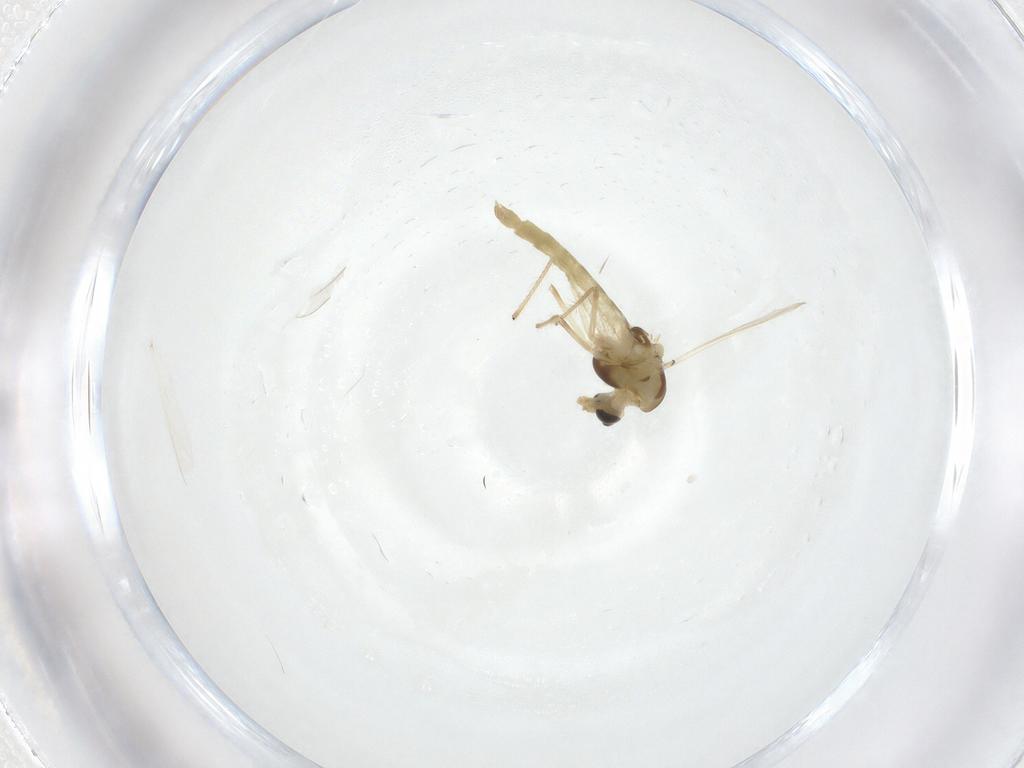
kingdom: Animalia
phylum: Arthropoda
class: Insecta
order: Diptera
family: Chironomidae
